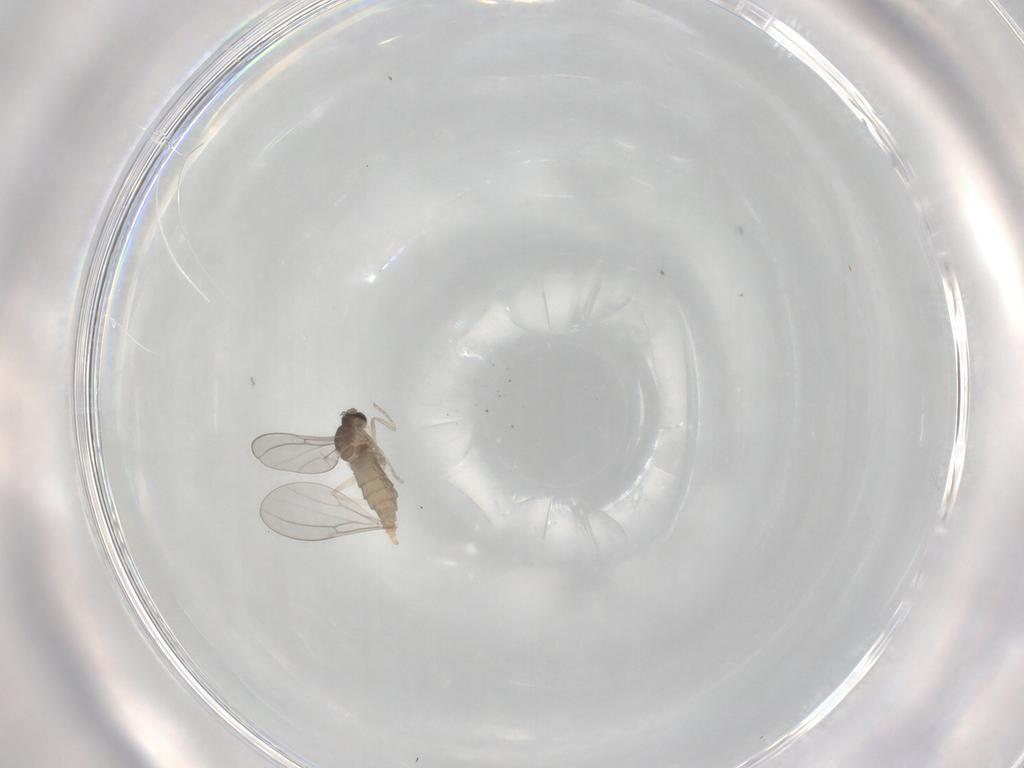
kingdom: Animalia
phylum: Arthropoda
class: Insecta
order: Diptera
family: Cecidomyiidae
